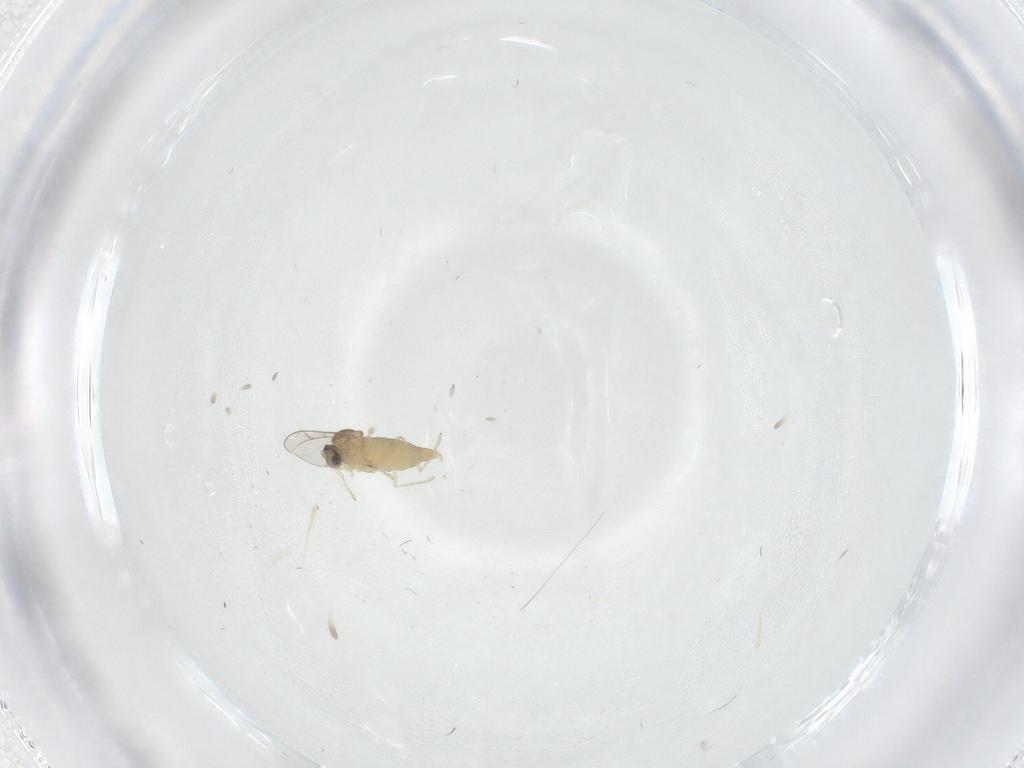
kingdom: Animalia
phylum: Arthropoda
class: Insecta
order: Diptera
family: Cecidomyiidae
